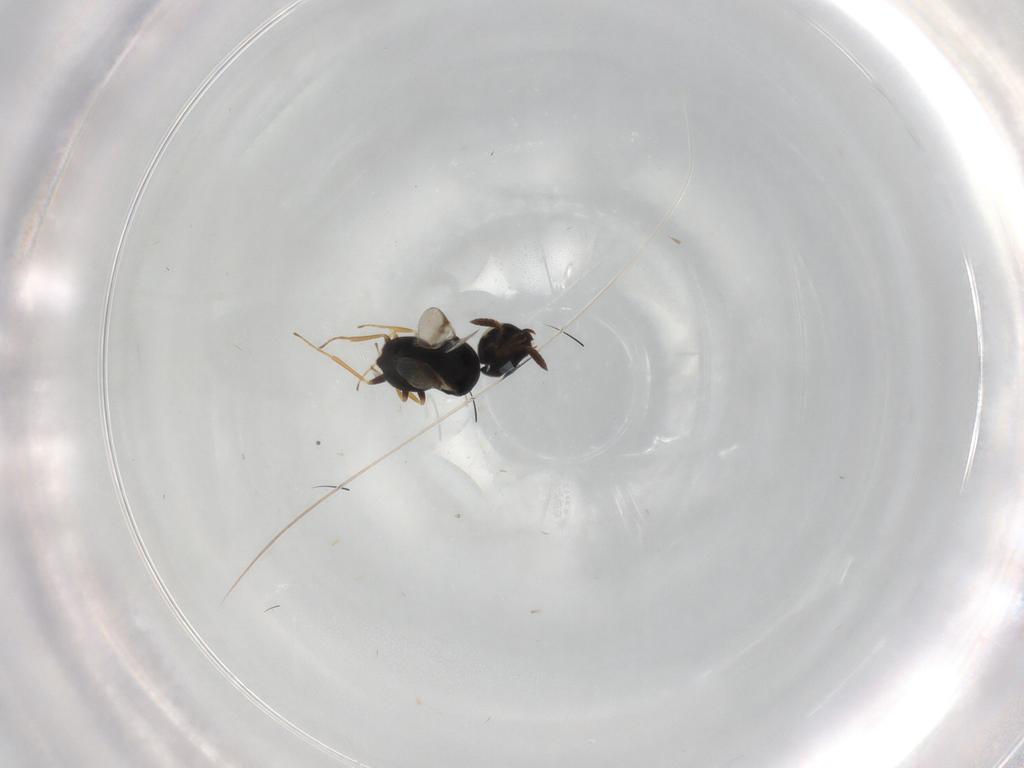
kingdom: Animalia
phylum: Arthropoda
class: Insecta
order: Hymenoptera
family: Scelionidae
